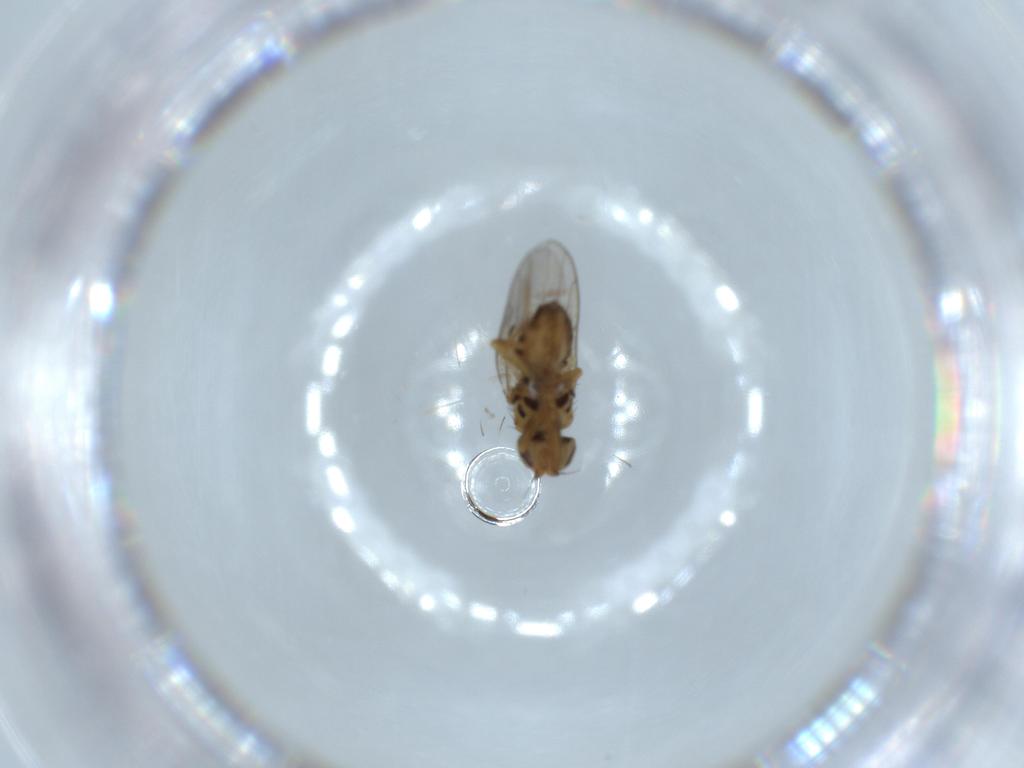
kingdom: Animalia
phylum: Arthropoda
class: Insecta
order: Diptera
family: Chloropidae
